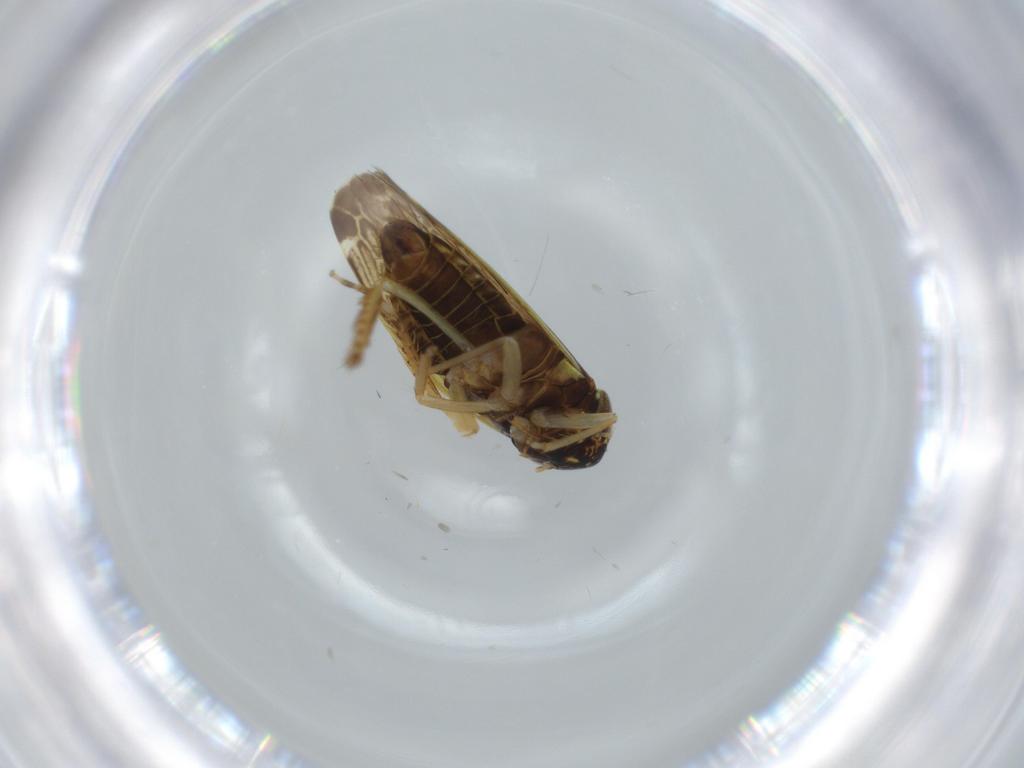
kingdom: Animalia
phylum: Arthropoda
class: Insecta
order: Hemiptera
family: Cicadellidae
